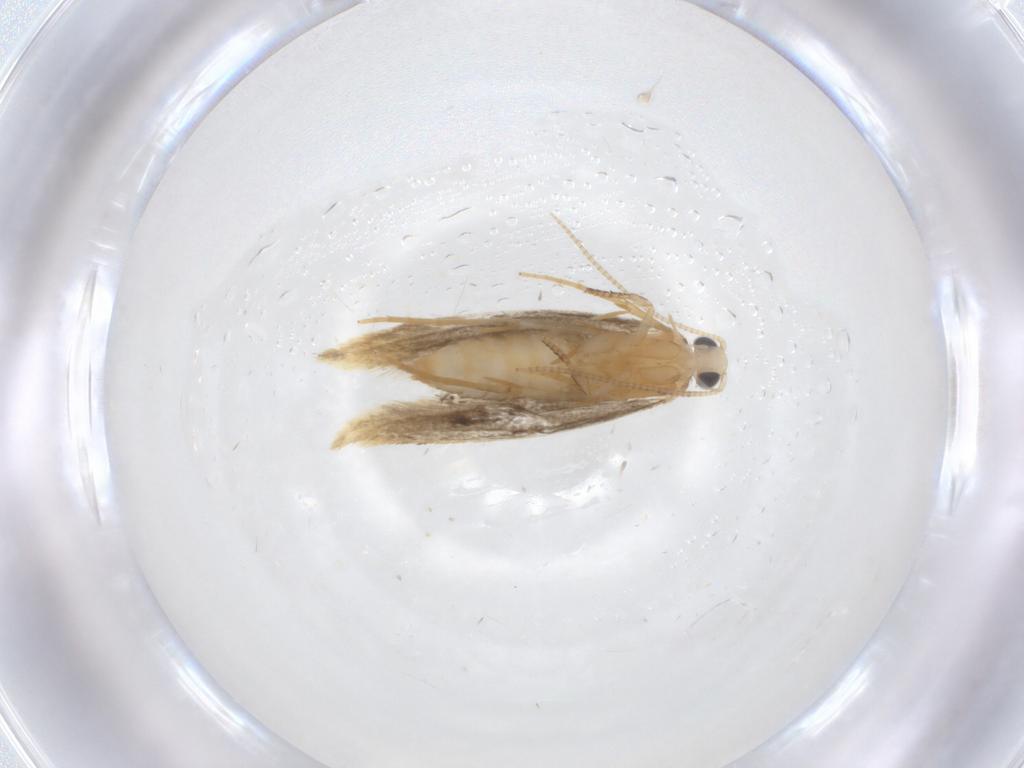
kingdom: Animalia
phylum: Arthropoda
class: Insecta
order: Lepidoptera
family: Tineidae
